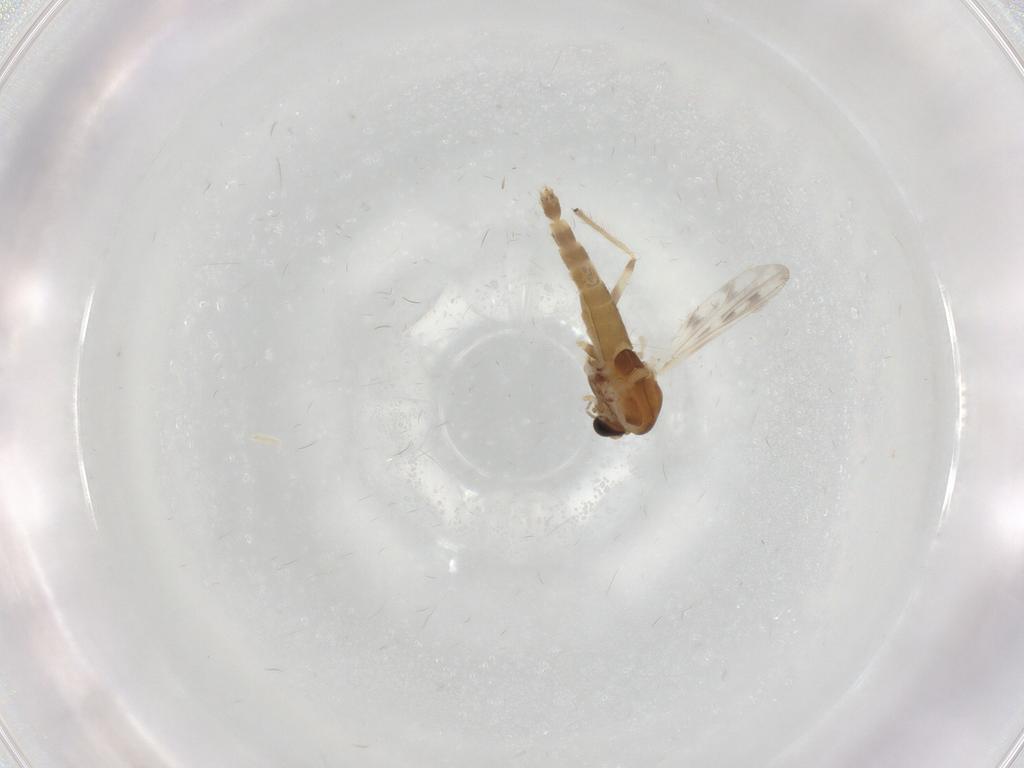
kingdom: Animalia
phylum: Arthropoda
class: Insecta
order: Diptera
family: Chironomidae
